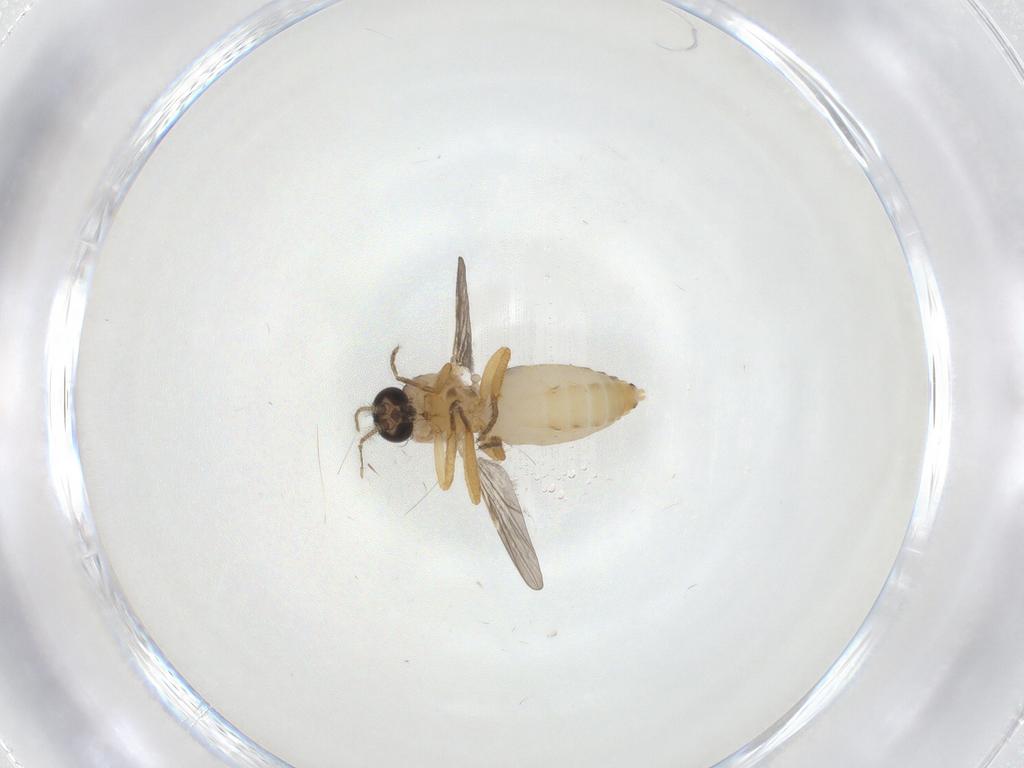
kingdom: Animalia
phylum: Arthropoda
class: Insecta
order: Diptera
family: Ceratopogonidae
